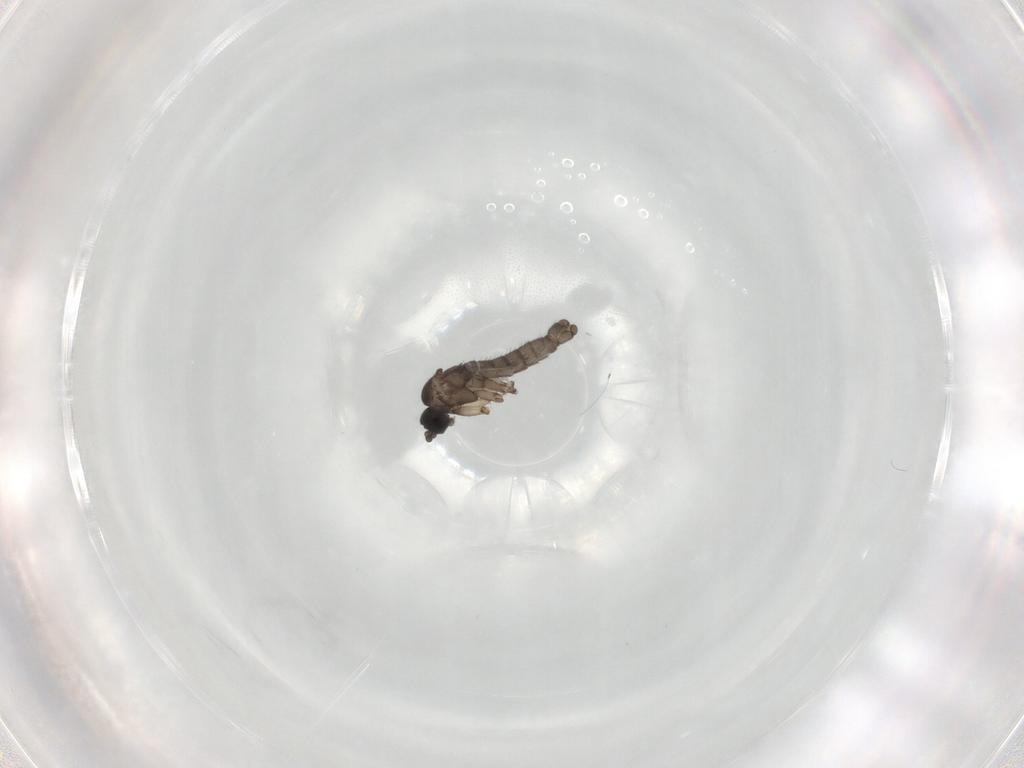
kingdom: Animalia
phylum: Arthropoda
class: Insecta
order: Diptera
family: Sciaridae
